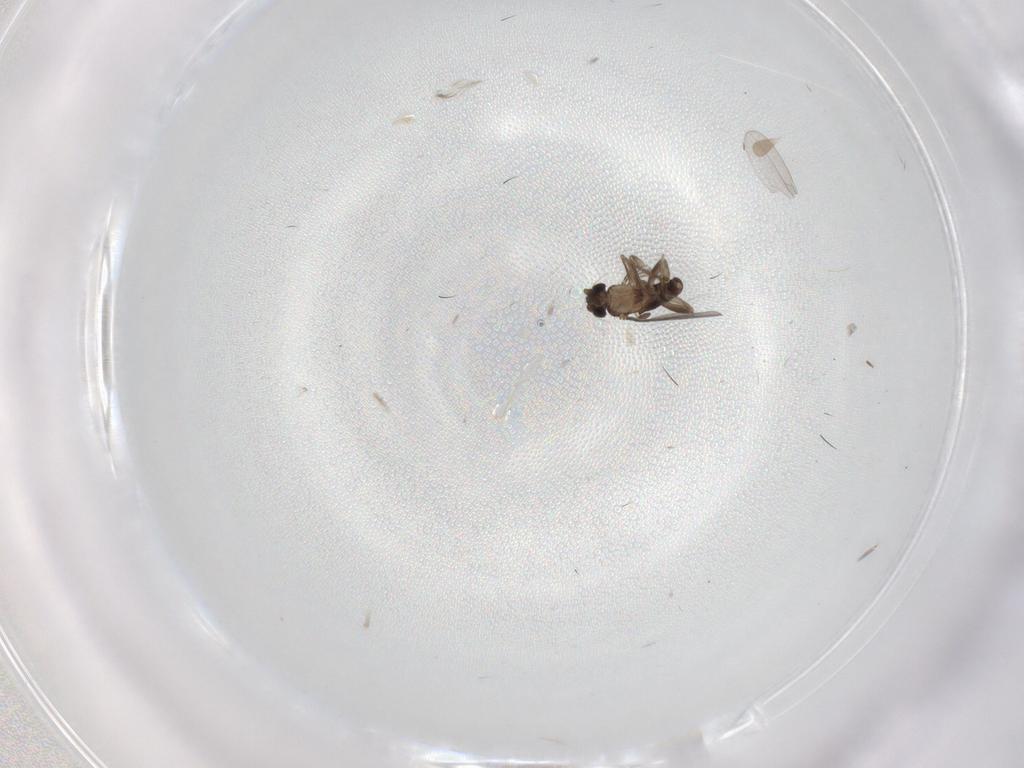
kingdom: Animalia
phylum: Arthropoda
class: Insecta
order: Diptera
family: Cecidomyiidae
